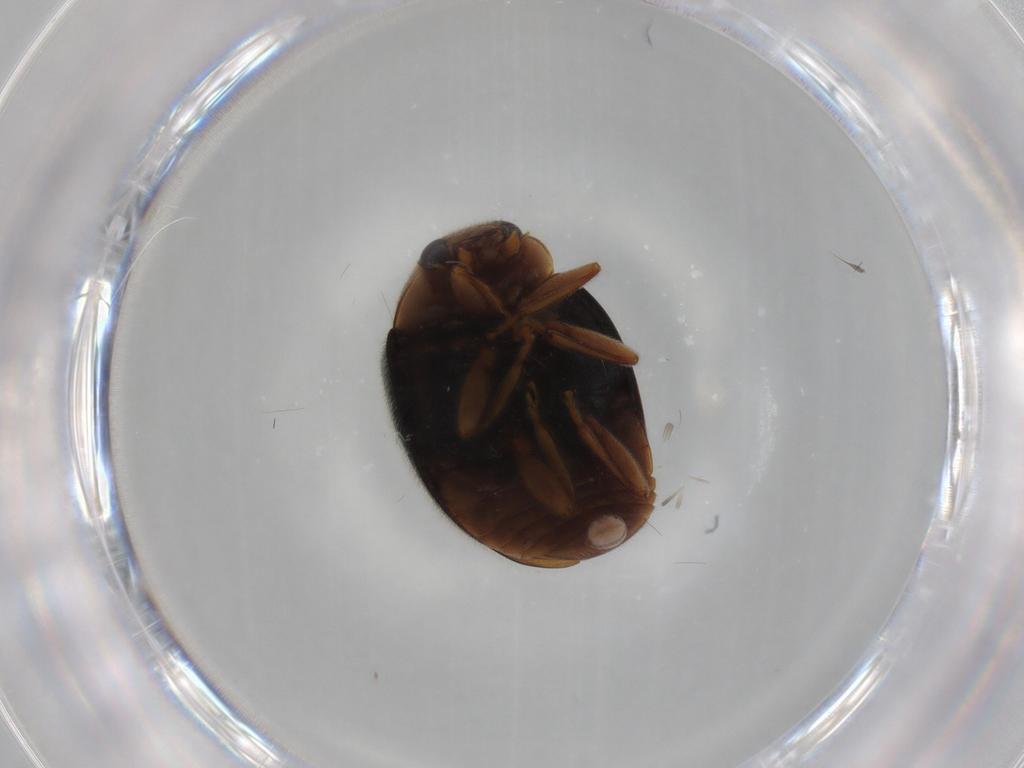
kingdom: Animalia
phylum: Arthropoda
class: Insecta
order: Coleoptera
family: Coccinellidae
